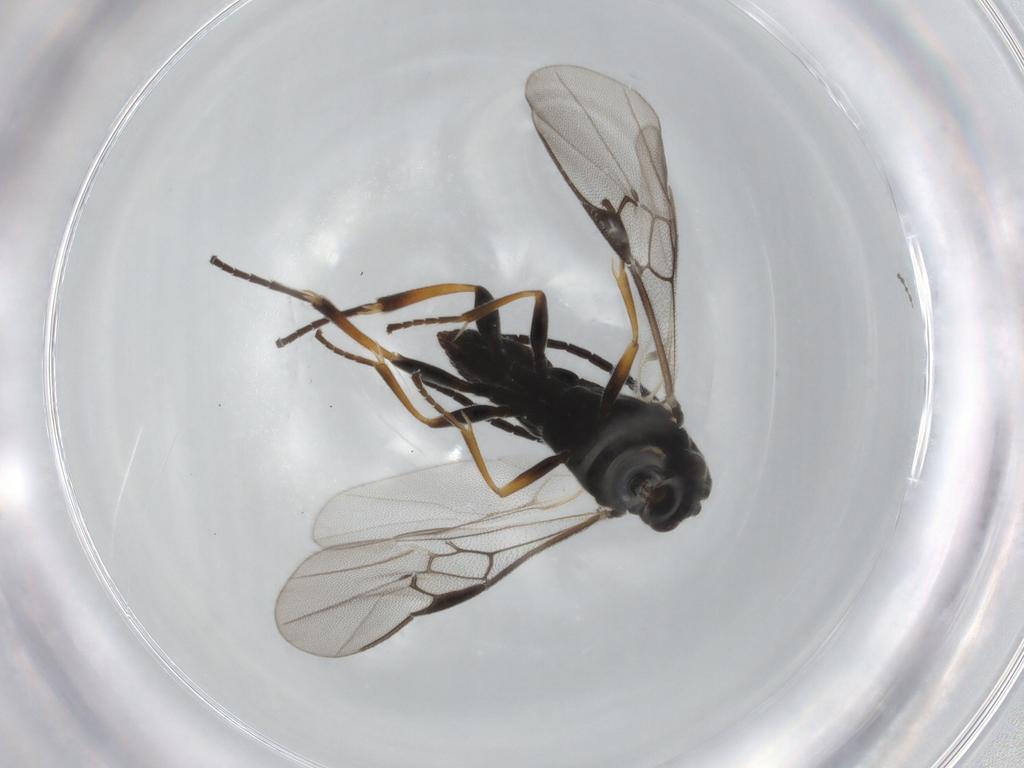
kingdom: Animalia
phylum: Arthropoda
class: Insecta
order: Hymenoptera
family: Braconidae
